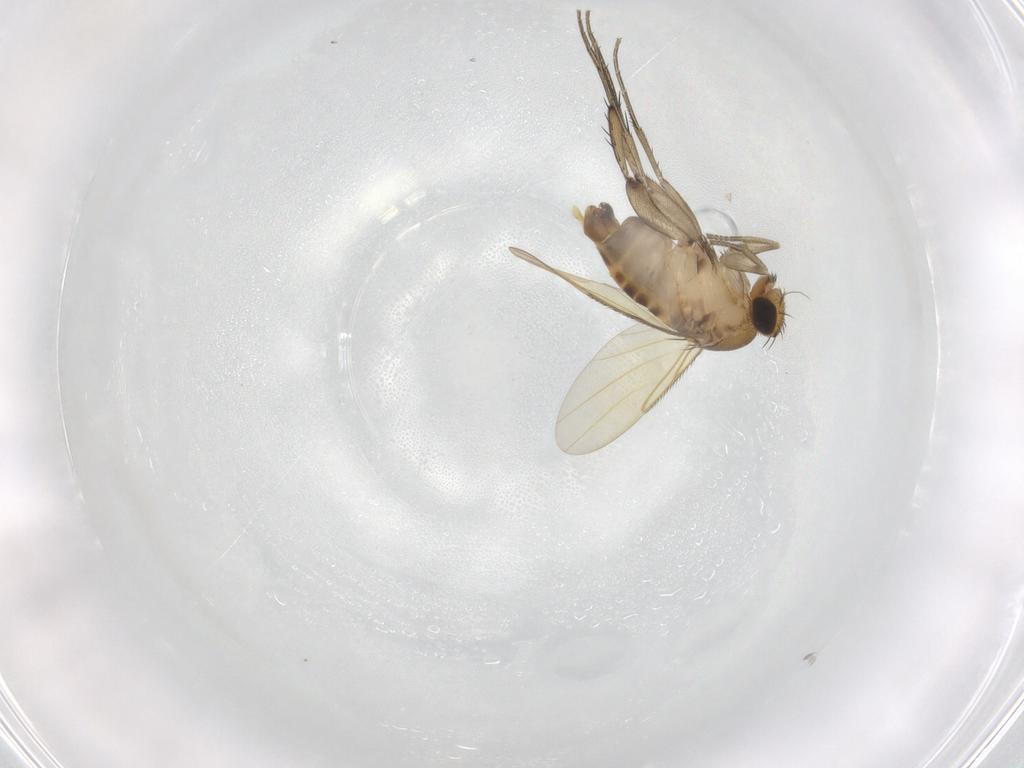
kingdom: Animalia
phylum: Arthropoda
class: Insecta
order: Diptera
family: Phoridae
